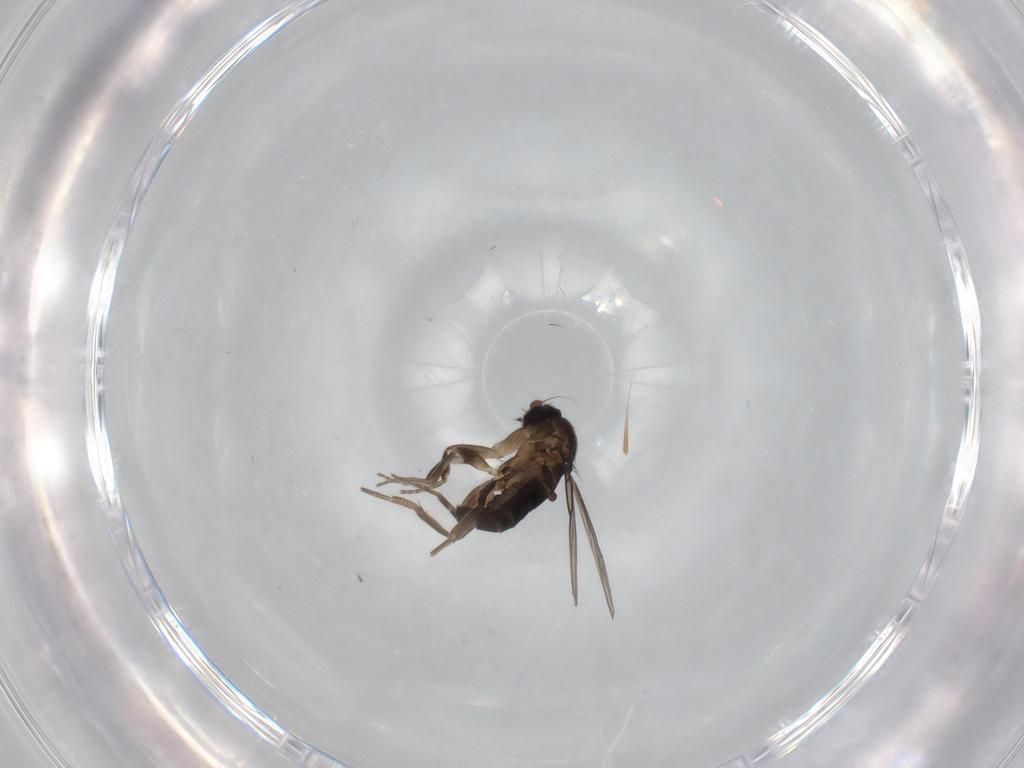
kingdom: Animalia
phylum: Arthropoda
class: Insecta
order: Diptera
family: Phoridae
